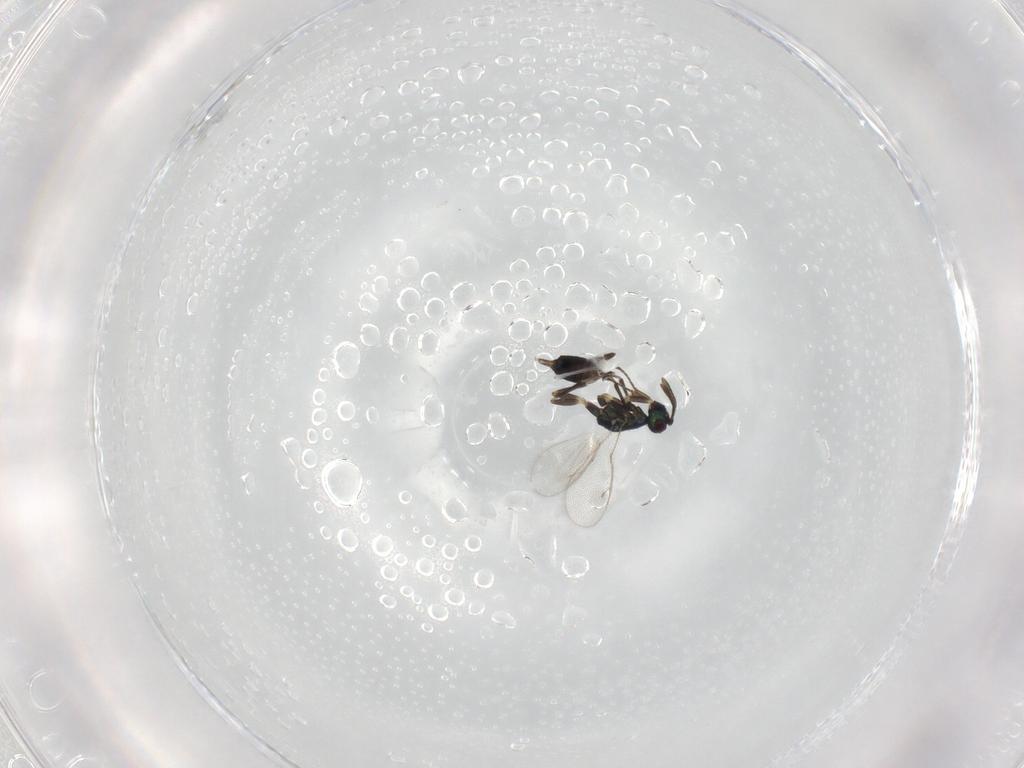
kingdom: Animalia
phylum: Arthropoda
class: Insecta
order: Hymenoptera
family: Eupelmidae
